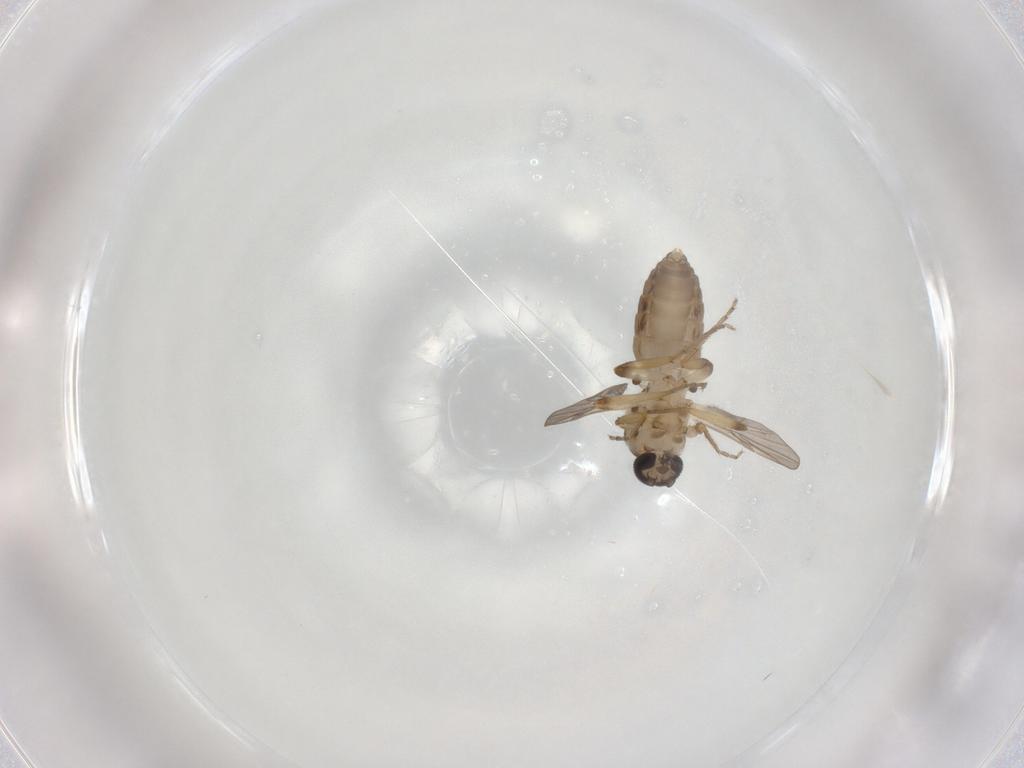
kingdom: Animalia
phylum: Arthropoda
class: Insecta
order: Diptera
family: Ceratopogonidae
